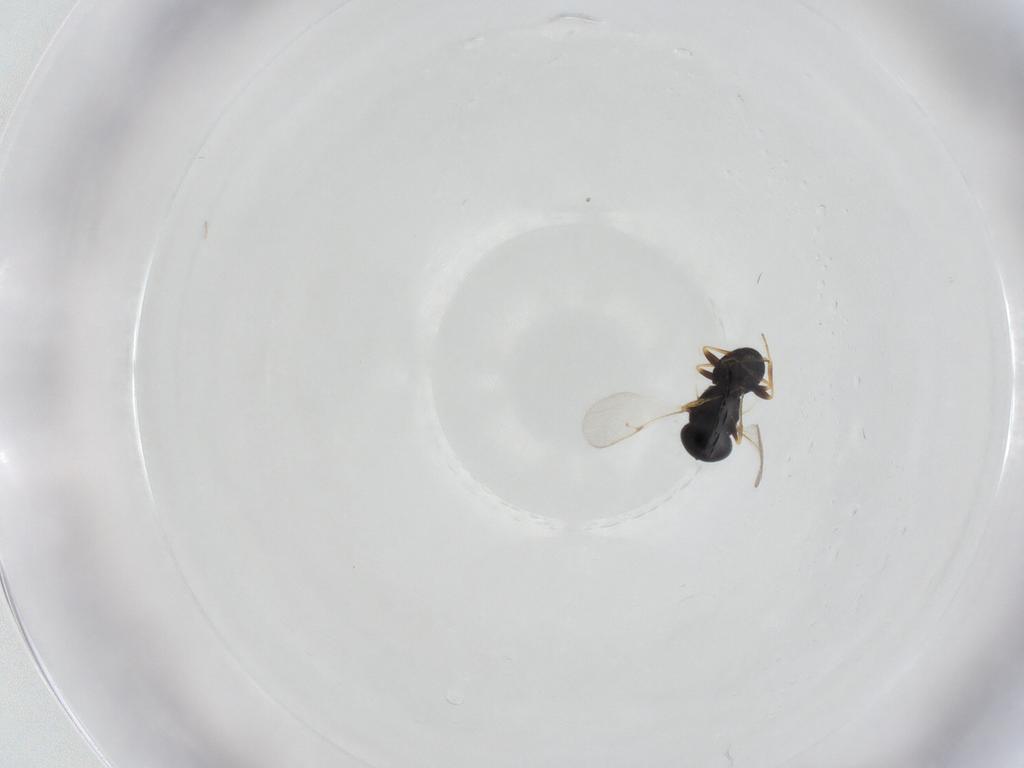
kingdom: Animalia
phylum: Arthropoda
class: Insecta
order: Hymenoptera
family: Scelionidae
